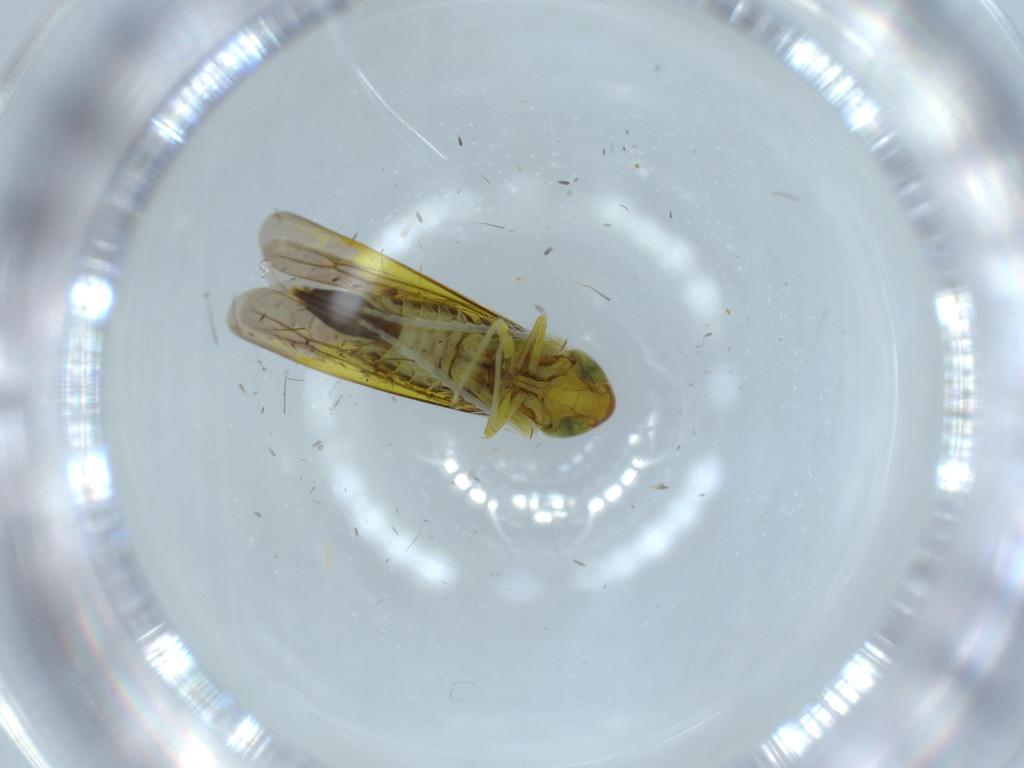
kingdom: Animalia
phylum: Arthropoda
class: Insecta
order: Hemiptera
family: Cicadellidae
